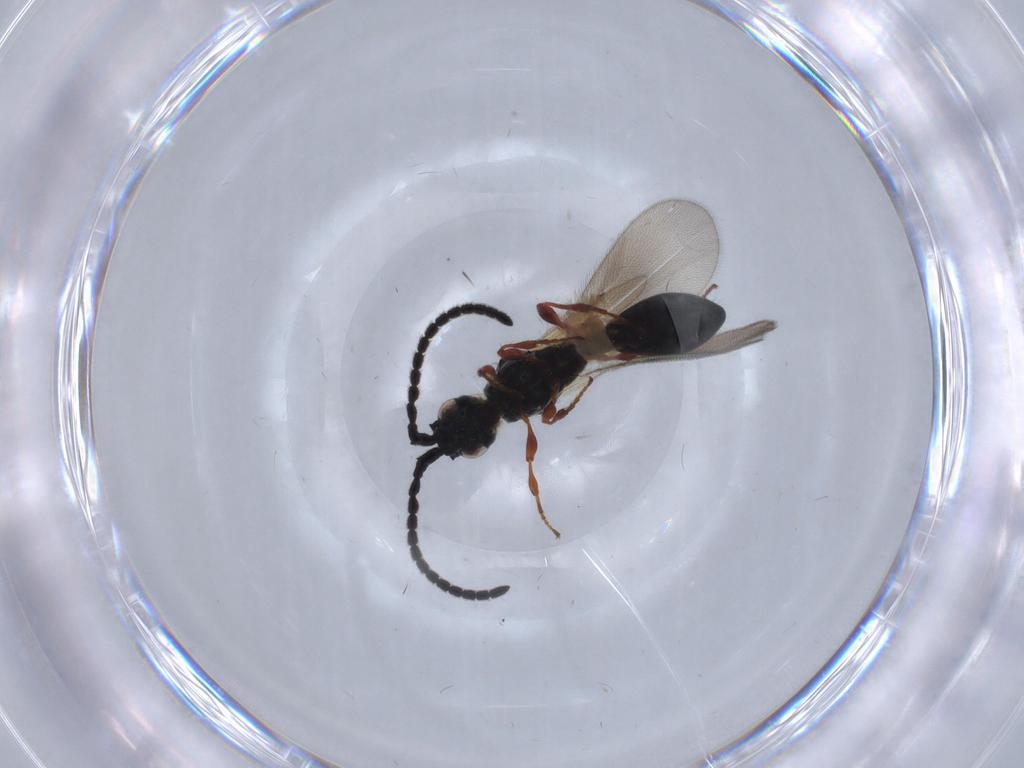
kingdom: Animalia
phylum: Arthropoda
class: Insecta
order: Hymenoptera
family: Diapriidae
